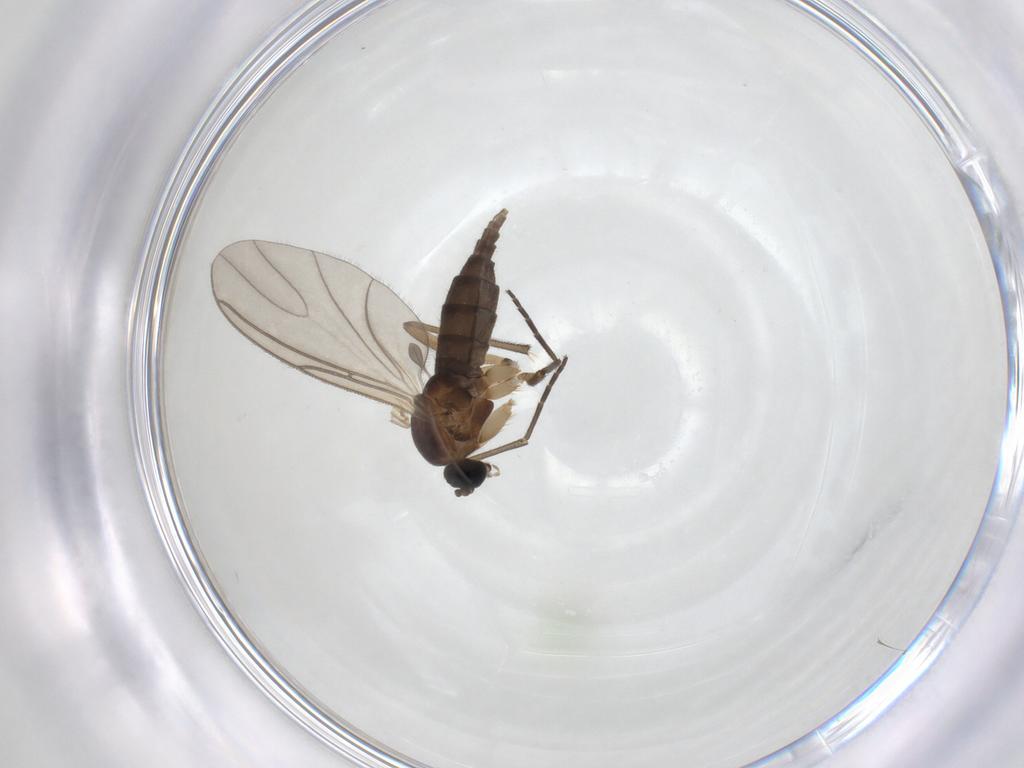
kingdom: Animalia
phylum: Arthropoda
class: Insecta
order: Diptera
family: Sciaridae
